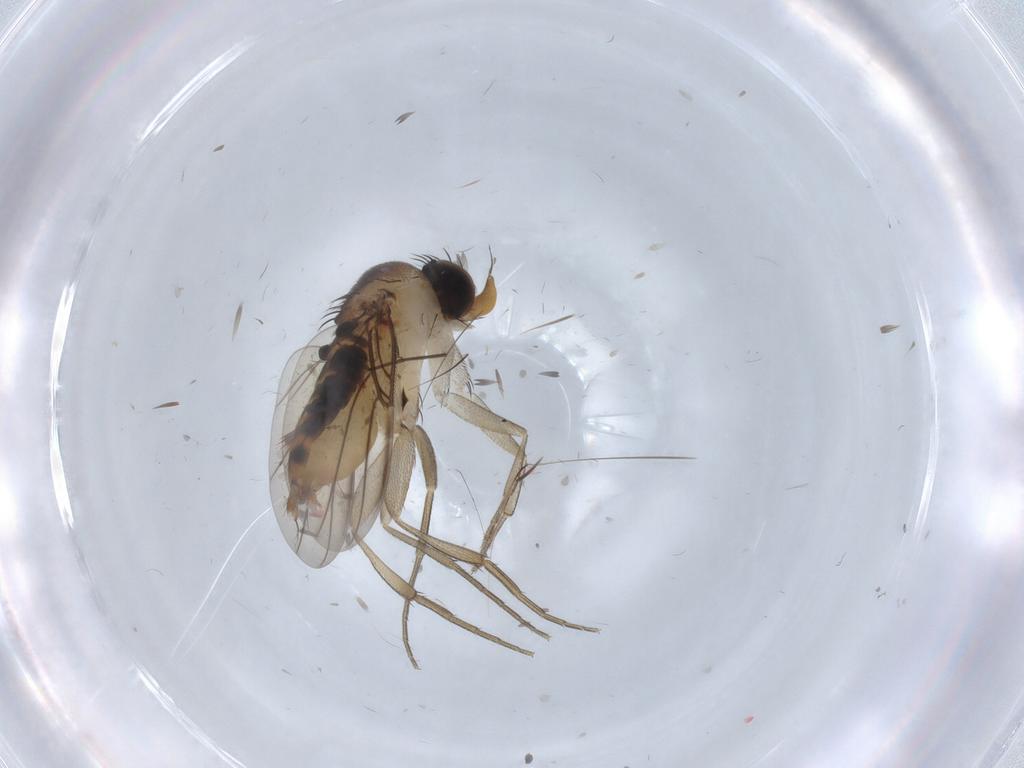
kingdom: Animalia
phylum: Arthropoda
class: Insecta
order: Diptera
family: Phoridae
